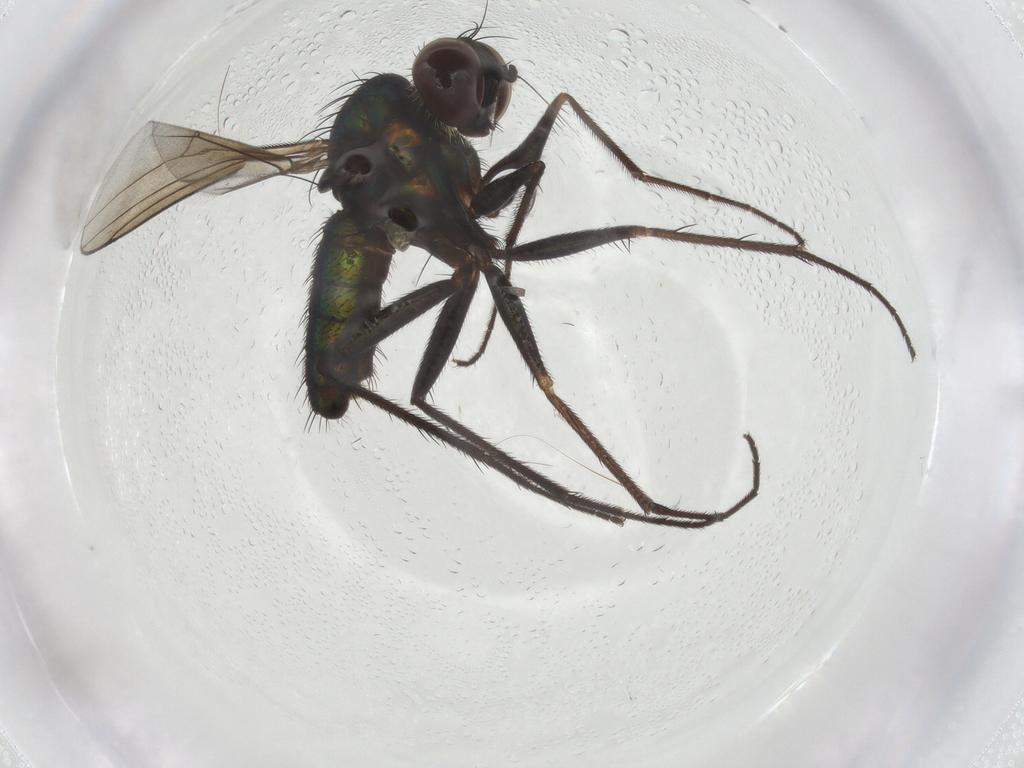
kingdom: Animalia
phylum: Arthropoda
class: Insecta
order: Diptera
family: Dolichopodidae
